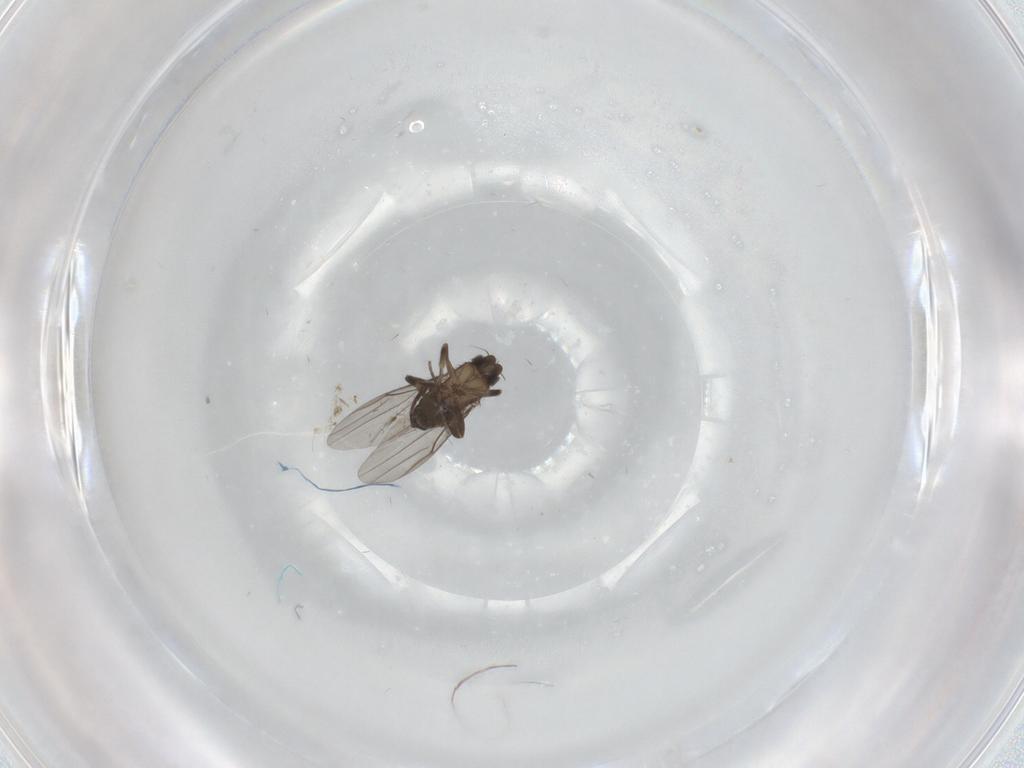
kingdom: Animalia
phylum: Arthropoda
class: Insecta
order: Diptera
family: Phoridae
